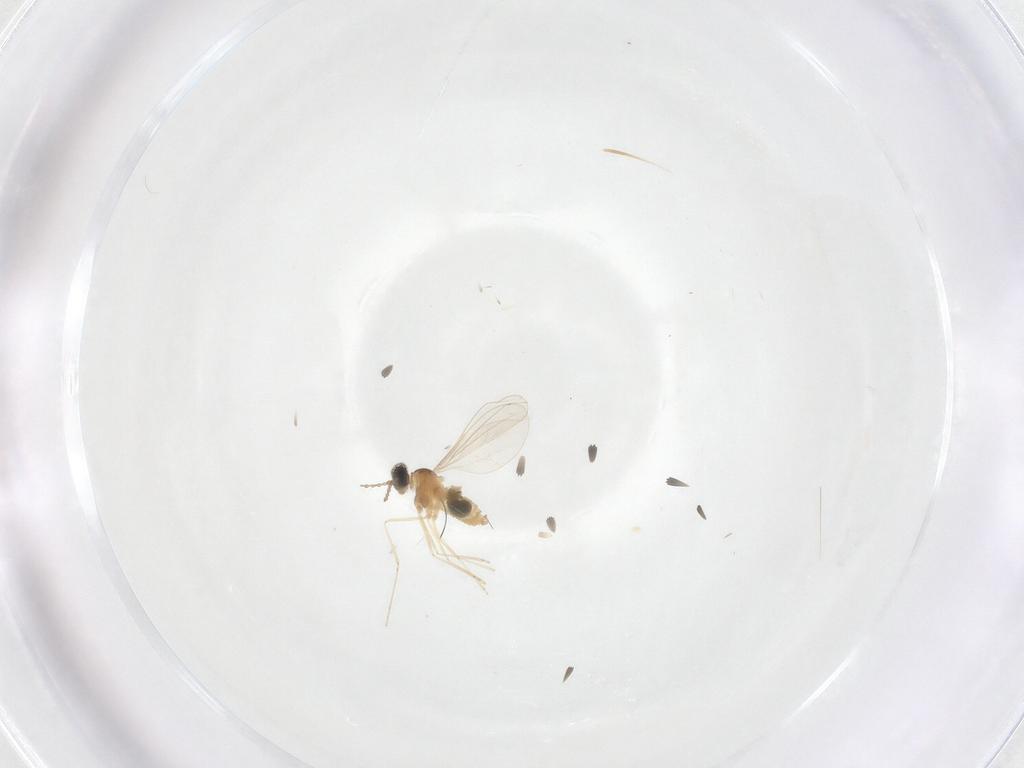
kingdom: Animalia
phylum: Arthropoda
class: Insecta
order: Diptera
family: Chironomidae
